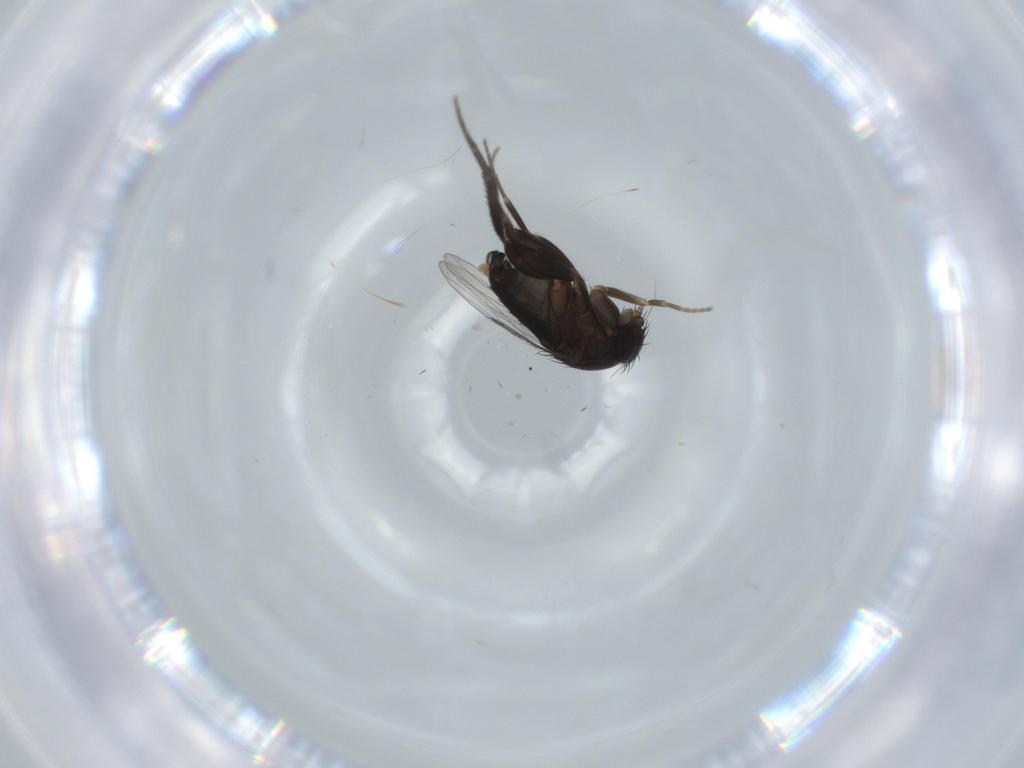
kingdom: Animalia
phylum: Arthropoda
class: Insecta
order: Diptera
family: Phoridae
